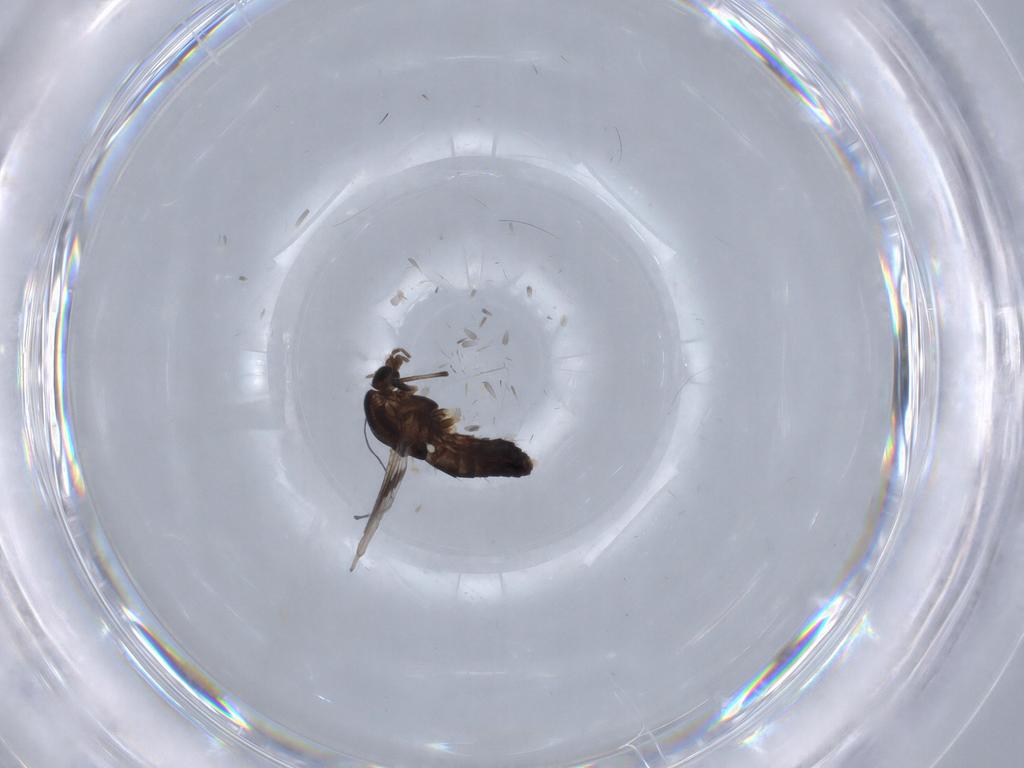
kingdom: Animalia
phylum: Arthropoda
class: Insecta
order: Diptera
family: Chironomidae
